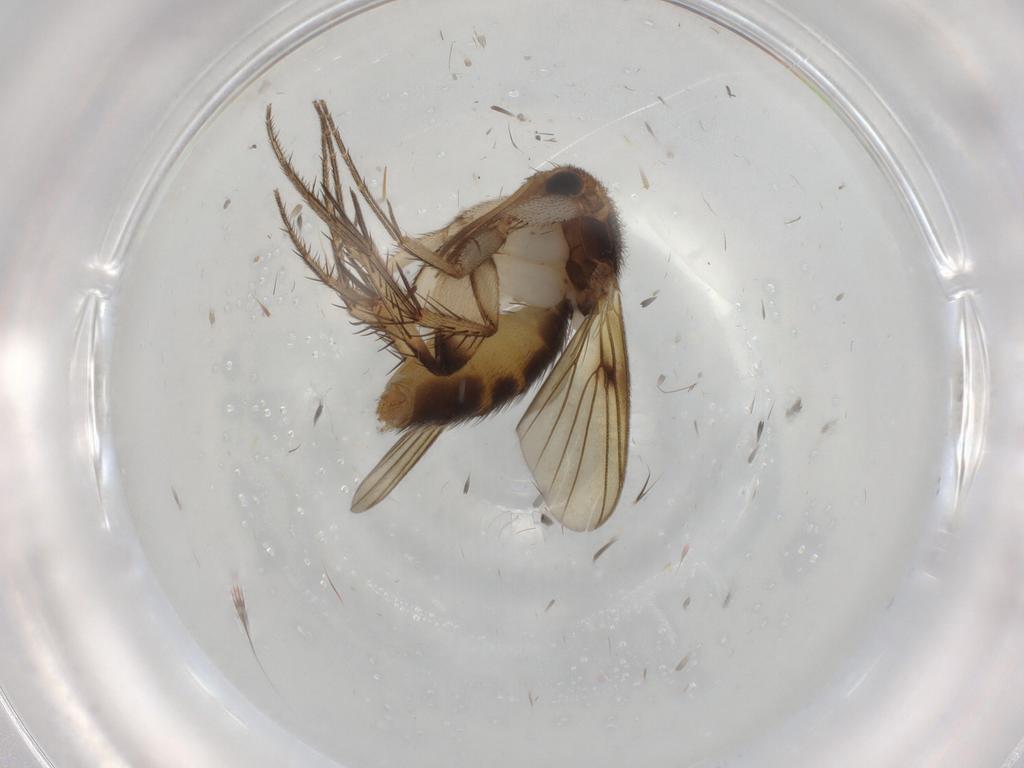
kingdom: Animalia
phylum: Arthropoda
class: Insecta
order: Diptera
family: Mycetophilidae
